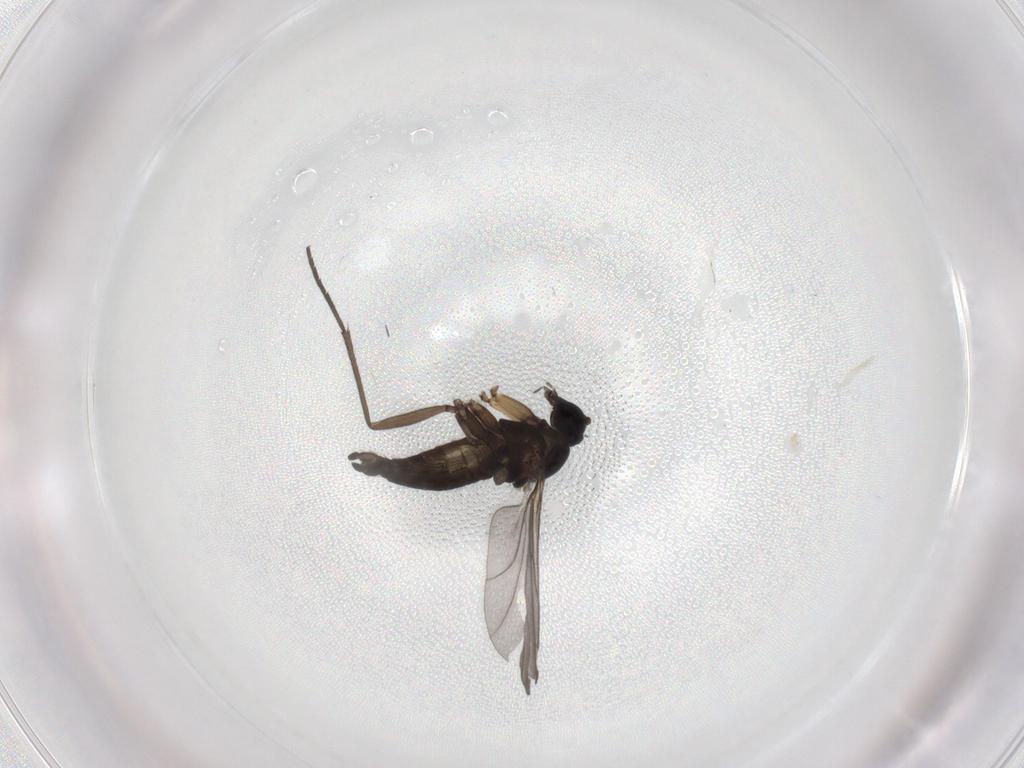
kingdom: Animalia
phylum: Arthropoda
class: Insecta
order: Diptera
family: Sciaridae
